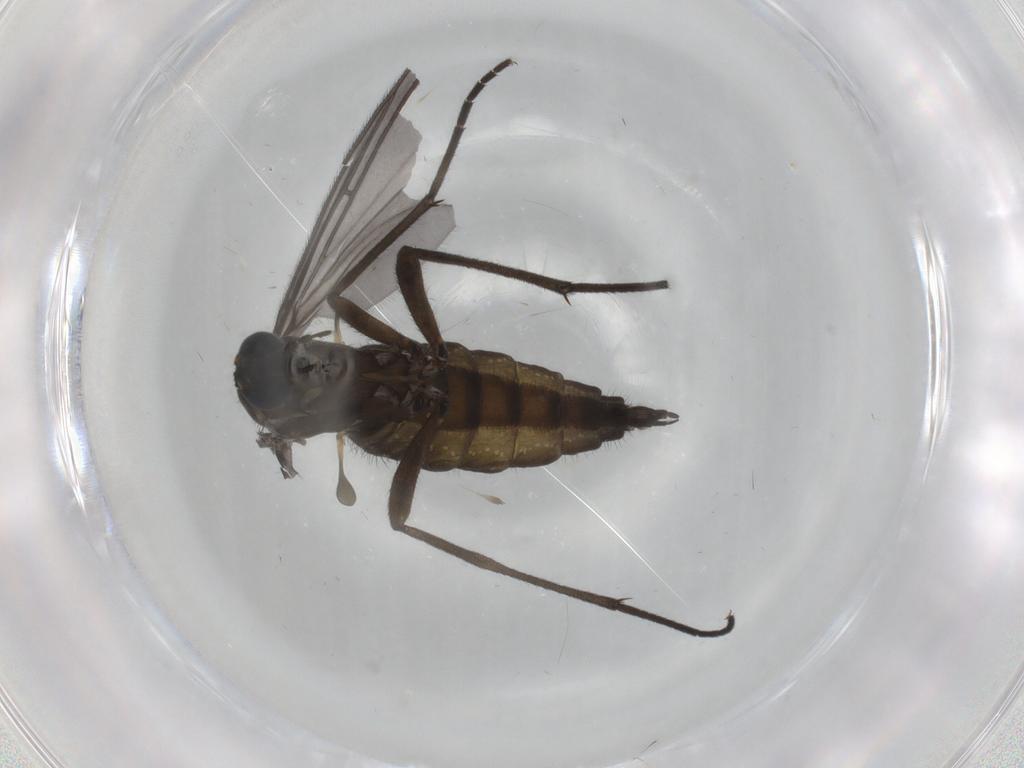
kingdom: Animalia
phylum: Arthropoda
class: Insecta
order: Diptera
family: Sciaridae
